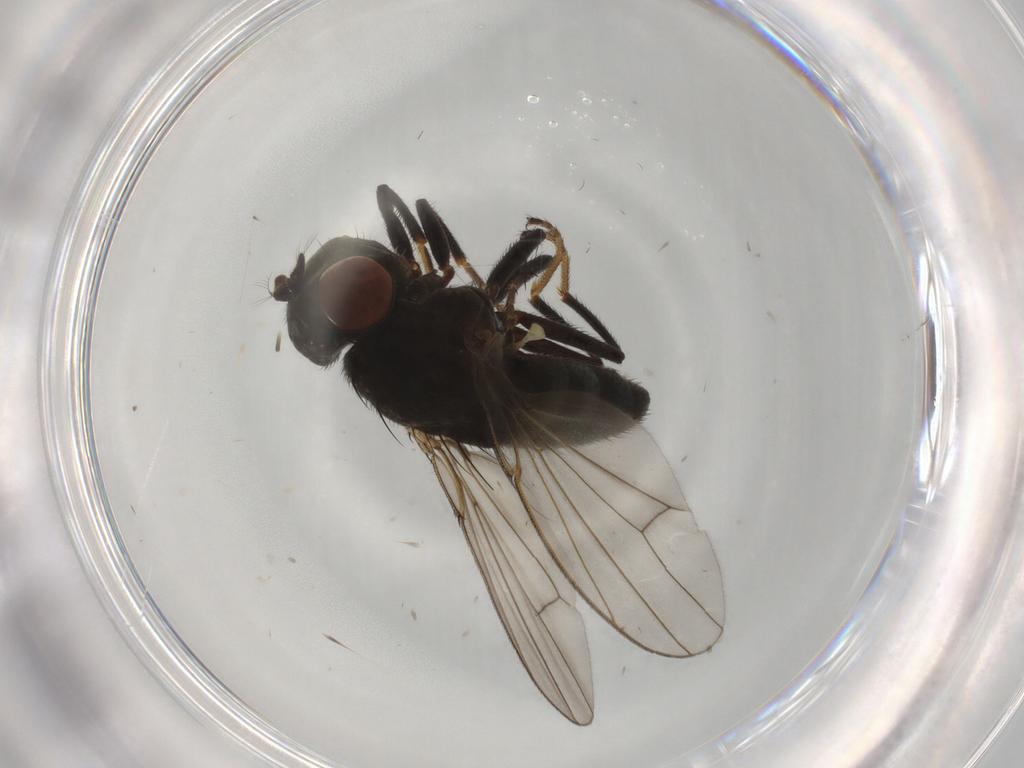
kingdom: Animalia
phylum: Arthropoda
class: Insecta
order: Diptera
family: Ephydridae
